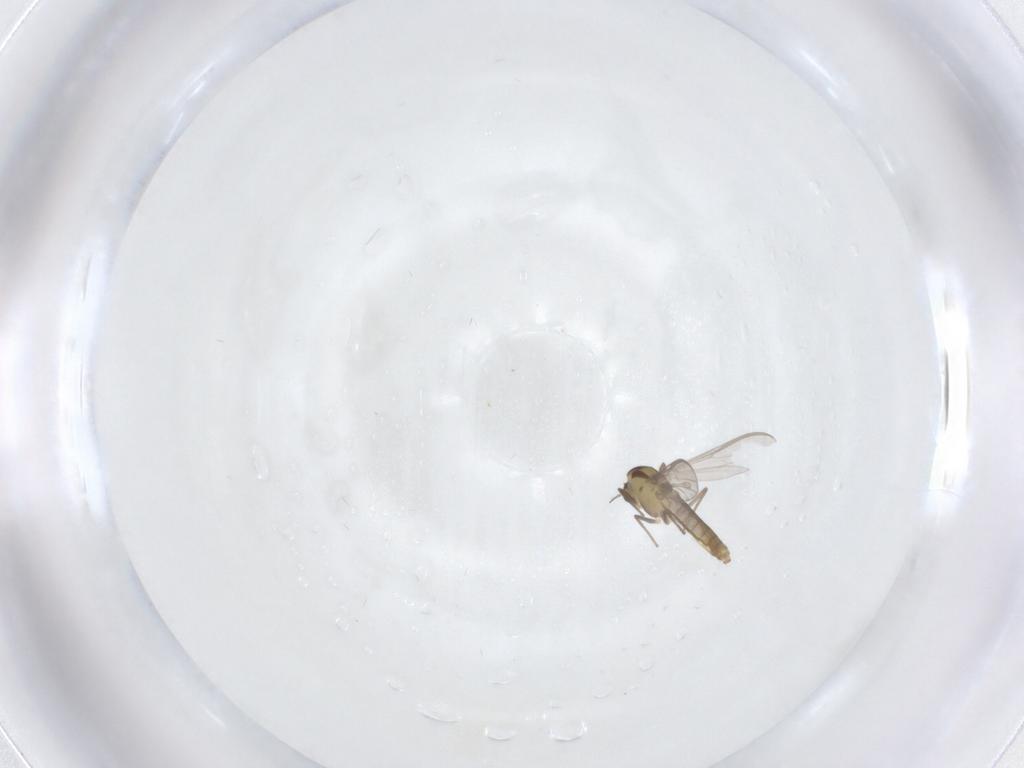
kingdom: Animalia
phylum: Arthropoda
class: Insecta
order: Diptera
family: Chironomidae
